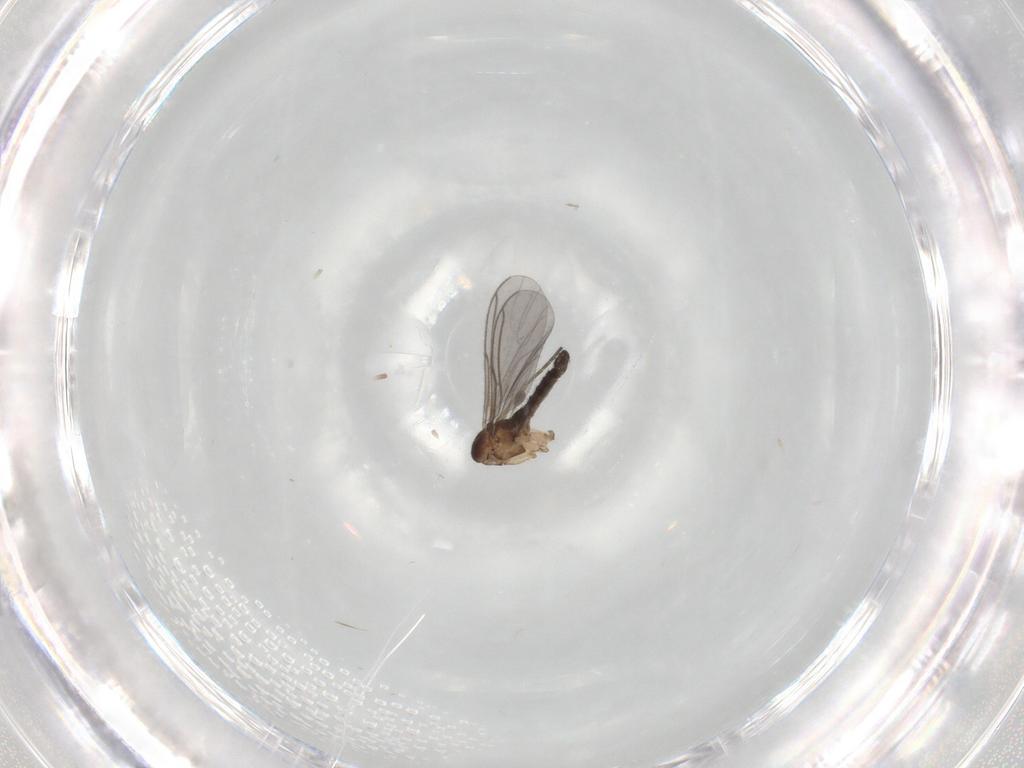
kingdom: Animalia
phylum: Arthropoda
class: Insecta
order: Diptera
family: Sciaridae
